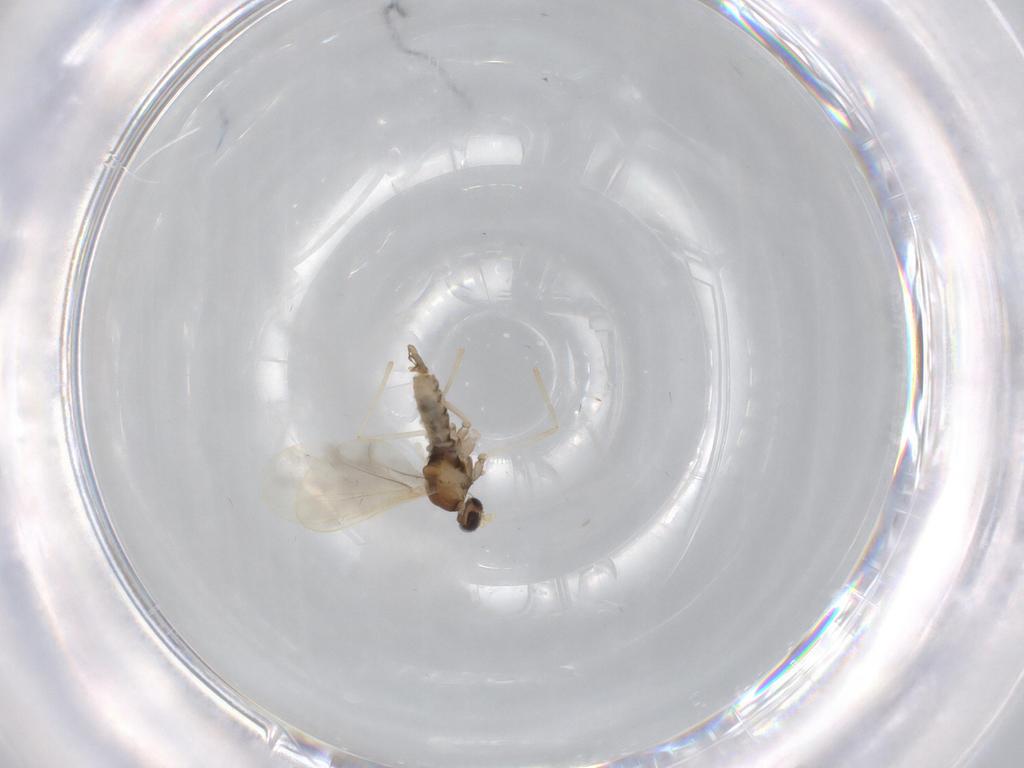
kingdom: Animalia
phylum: Arthropoda
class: Insecta
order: Diptera
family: Cecidomyiidae
